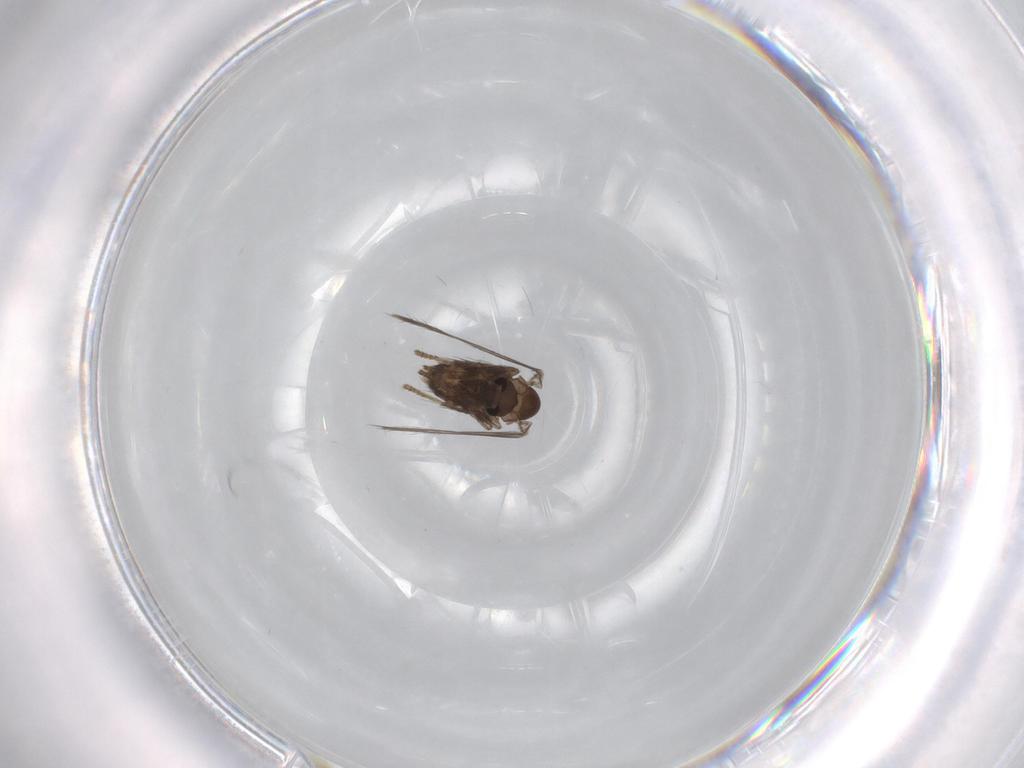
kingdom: Animalia
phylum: Arthropoda
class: Insecta
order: Diptera
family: Psychodidae
